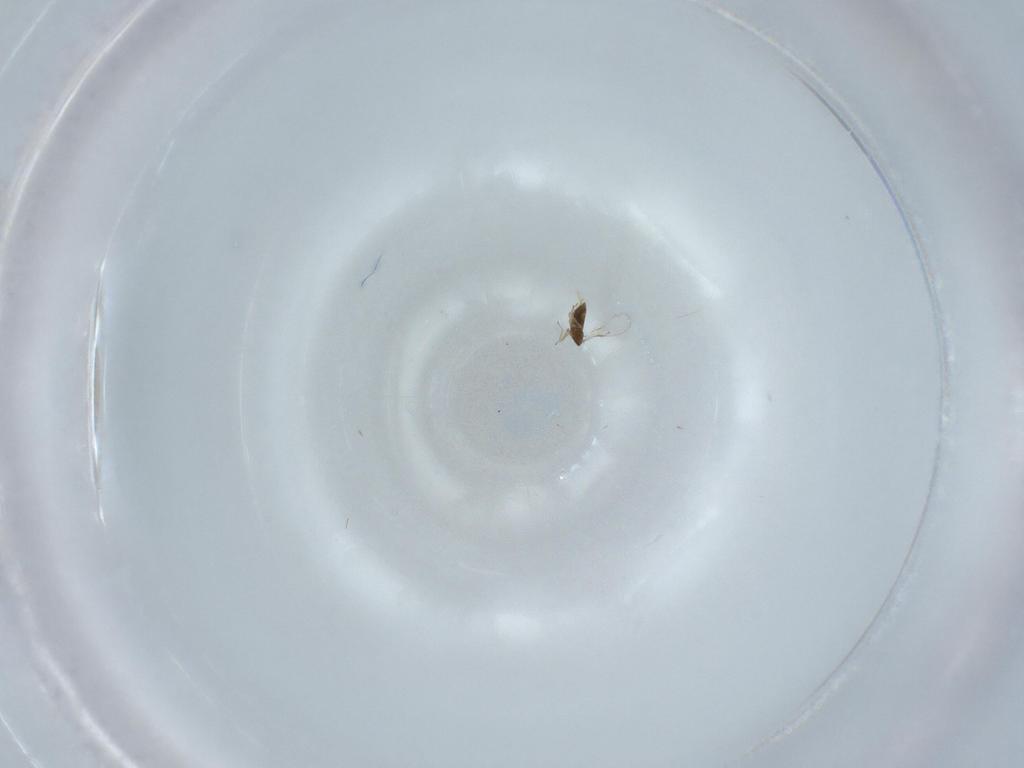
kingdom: Animalia
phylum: Arthropoda
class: Insecta
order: Hymenoptera
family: Trichogrammatidae
